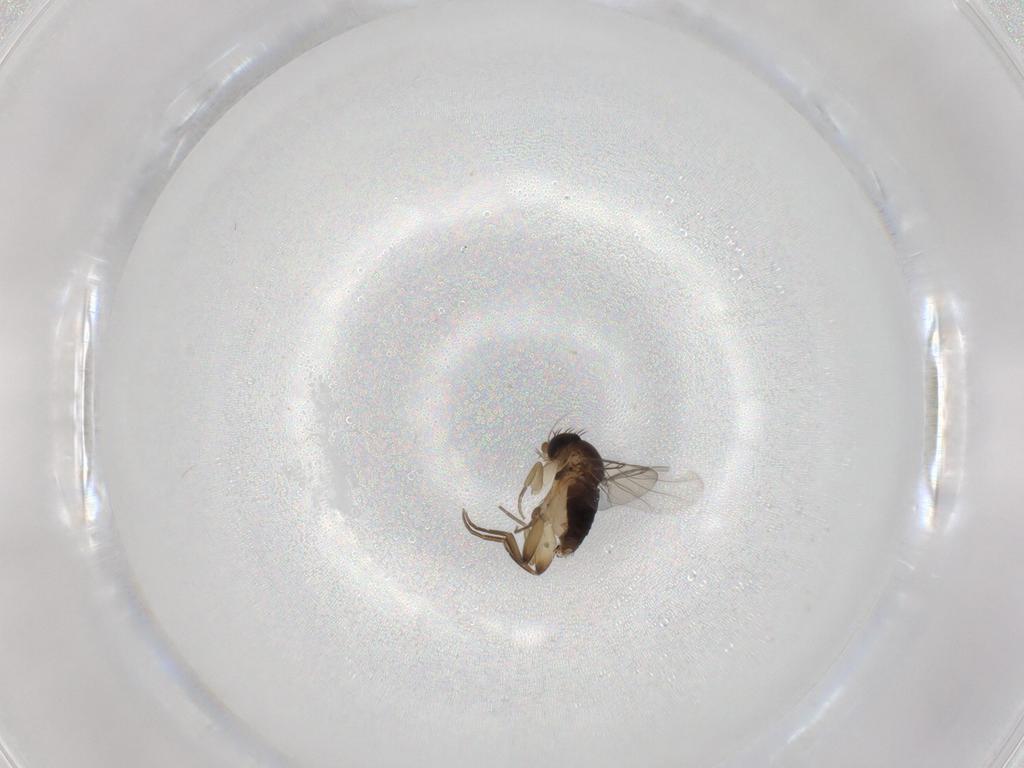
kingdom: Animalia
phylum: Arthropoda
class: Insecta
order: Diptera
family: Phoridae
